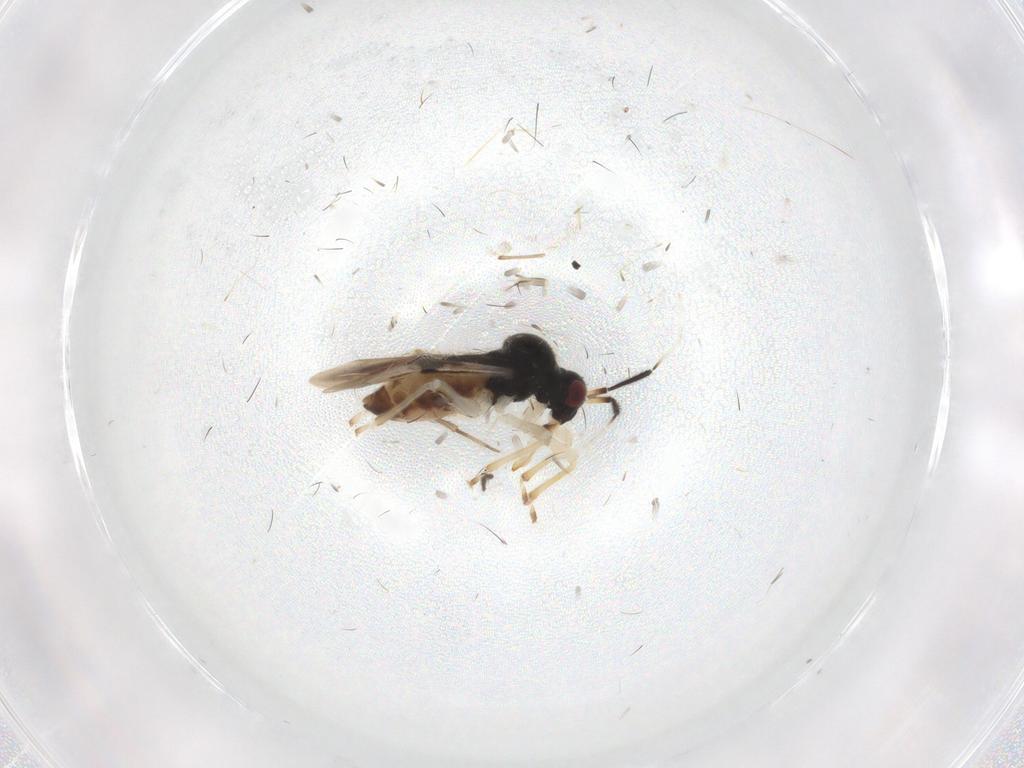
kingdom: Animalia
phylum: Arthropoda
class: Insecta
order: Hemiptera
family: Miridae
